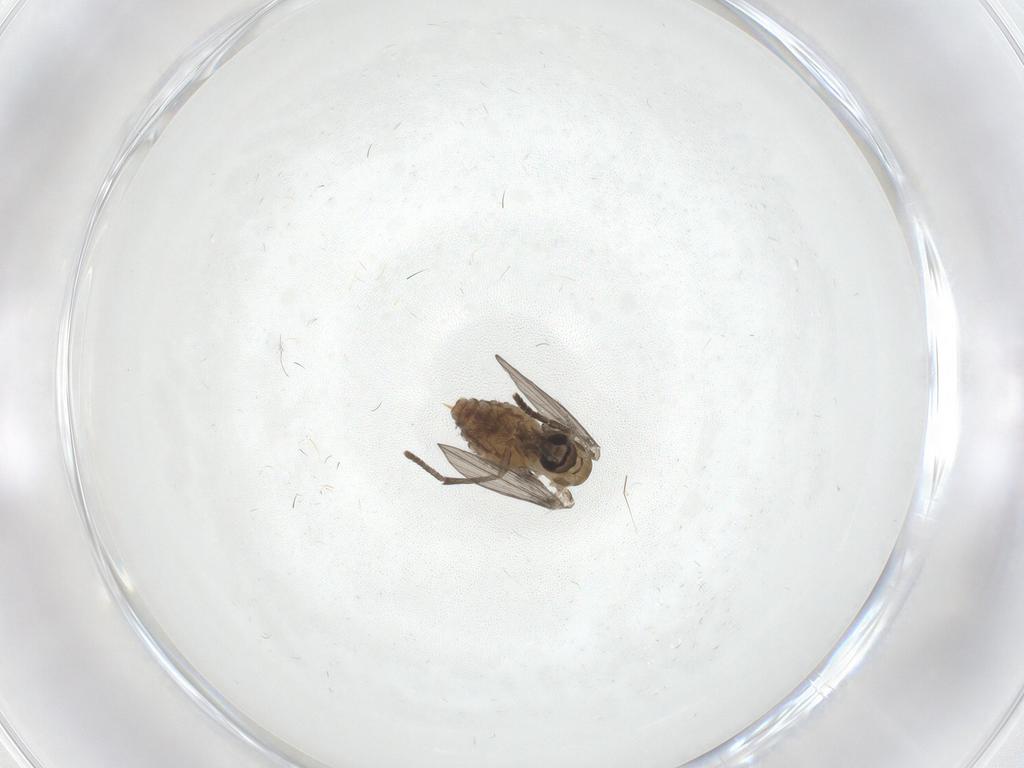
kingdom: Animalia
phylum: Arthropoda
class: Insecta
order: Diptera
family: Psychodidae
